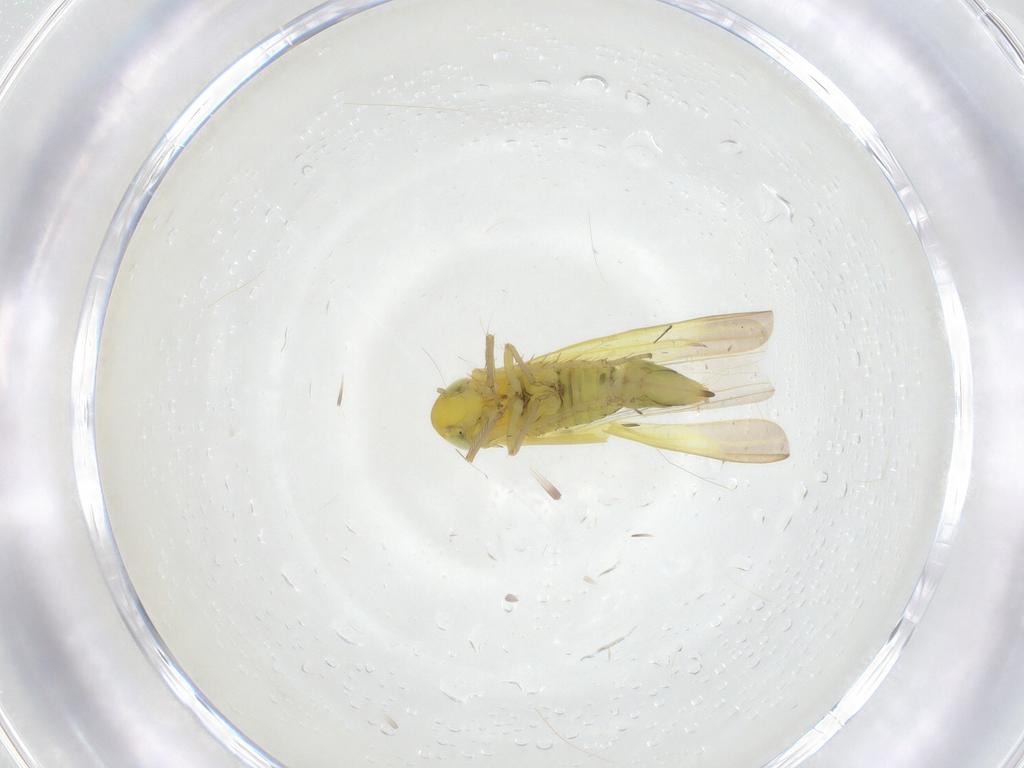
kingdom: Animalia
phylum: Arthropoda
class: Insecta
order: Hemiptera
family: Cicadellidae
